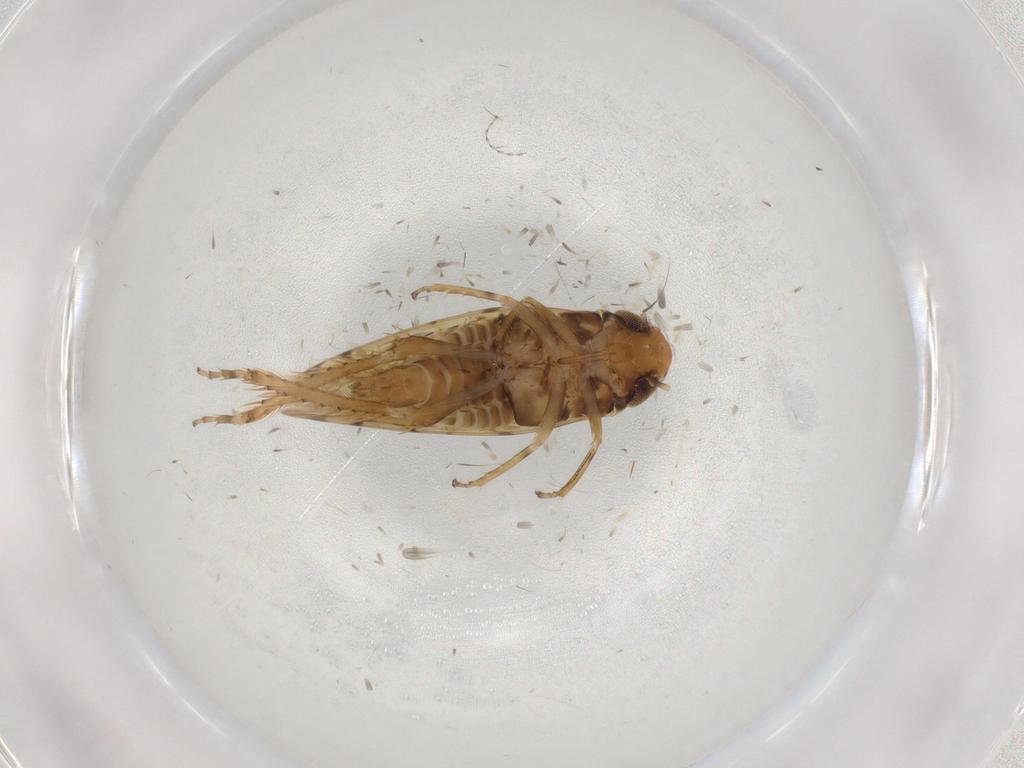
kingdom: Animalia
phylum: Arthropoda
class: Insecta
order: Hemiptera
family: Cicadellidae
